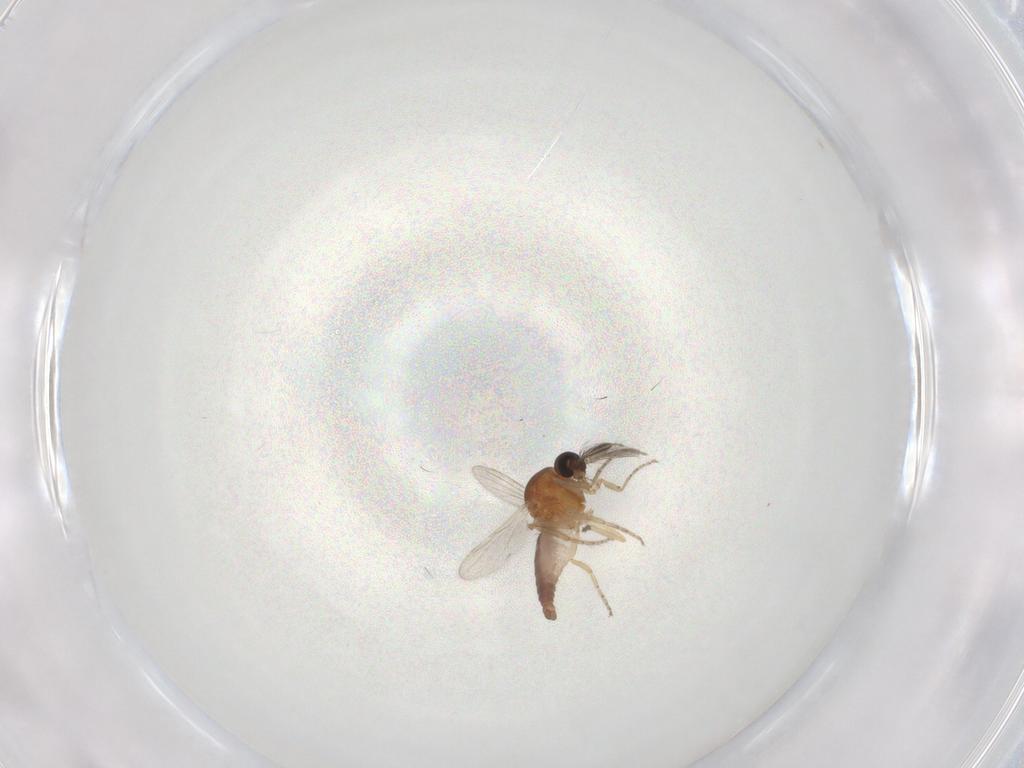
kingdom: Animalia
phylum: Arthropoda
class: Insecta
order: Diptera
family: Ceratopogonidae
